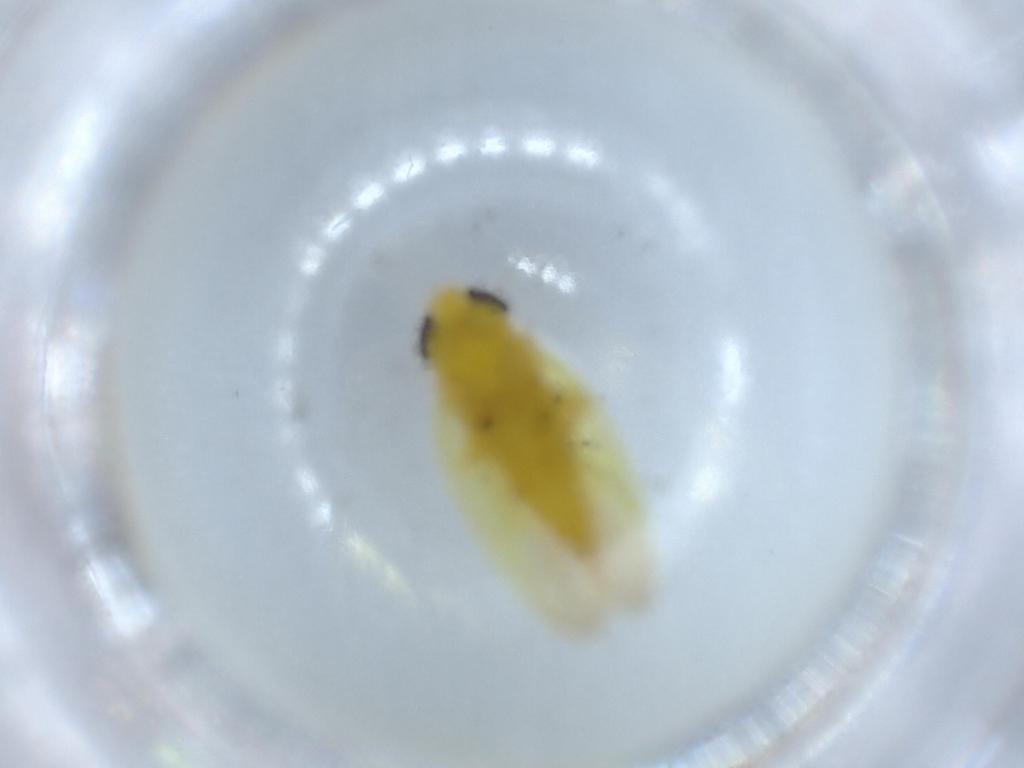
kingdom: Animalia
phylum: Arthropoda
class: Insecta
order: Hemiptera
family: Cicadellidae
